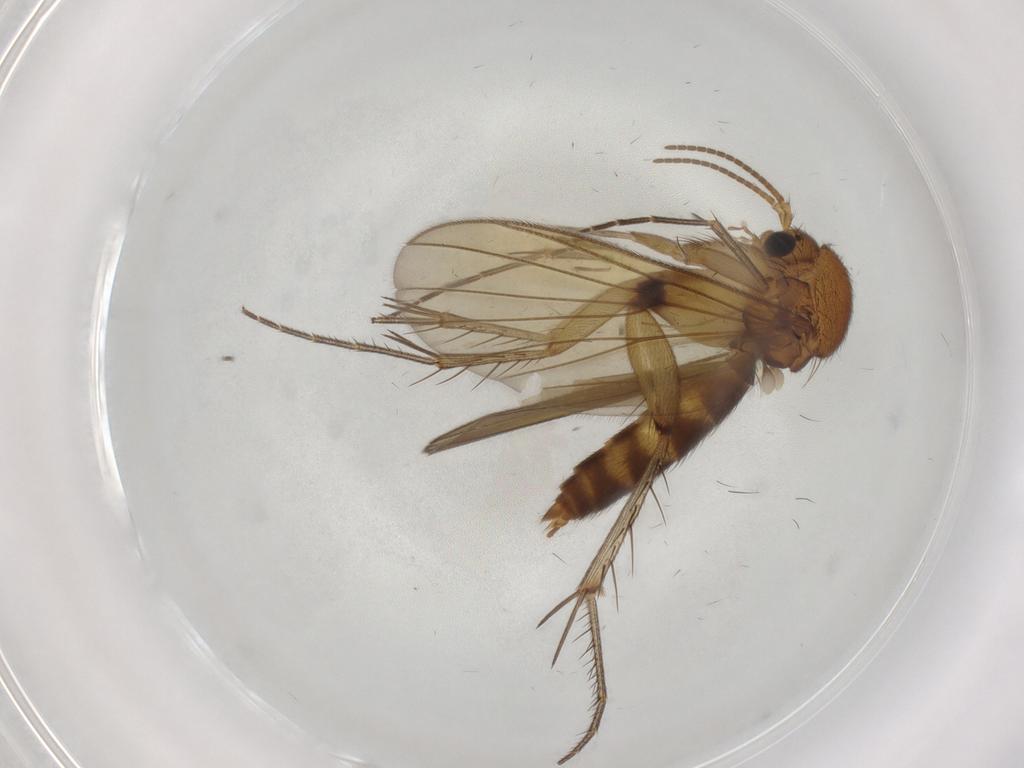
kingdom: Animalia
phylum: Arthropoda
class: Insecta
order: Diptera
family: Chironomidae
